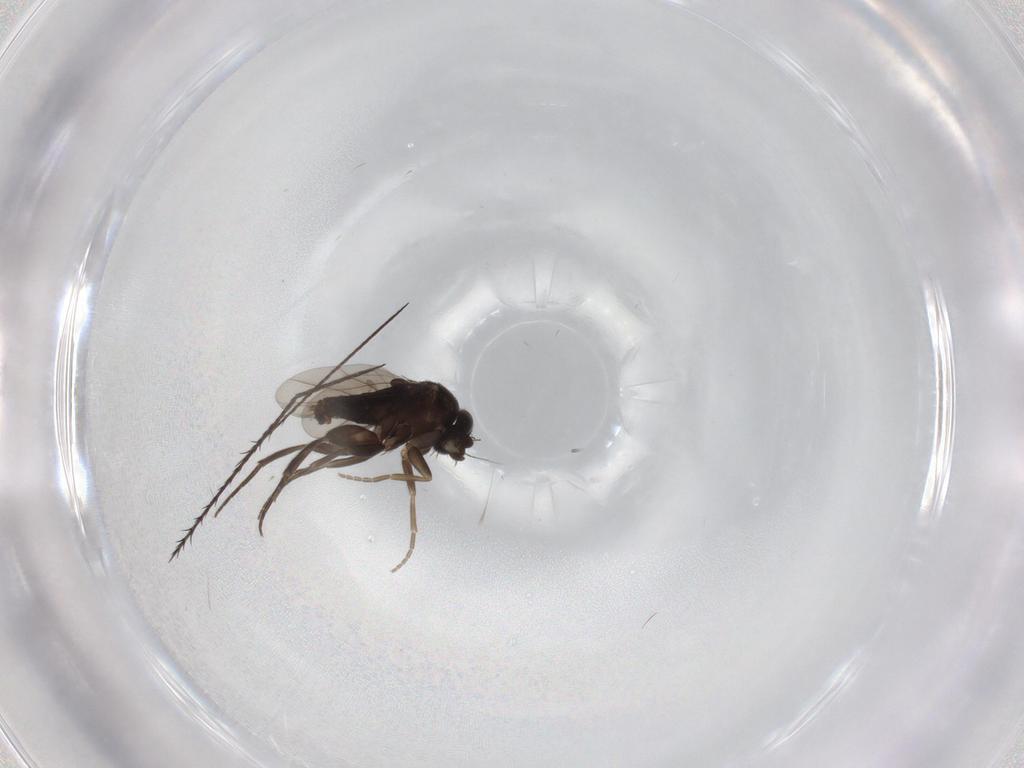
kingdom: Animalia
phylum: Arthropoda
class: Insecta
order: Diptera
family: Phoridae
